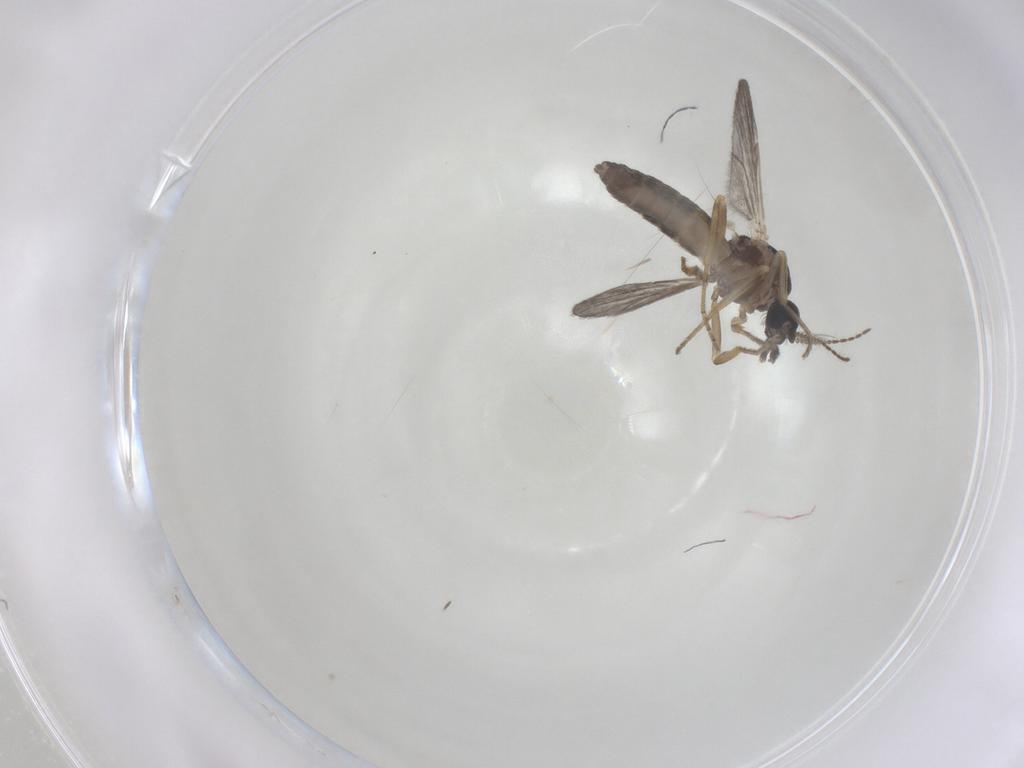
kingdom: Animalia
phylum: Arthropoda
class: Insecta
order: Diptera
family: Ceratopogonidae
